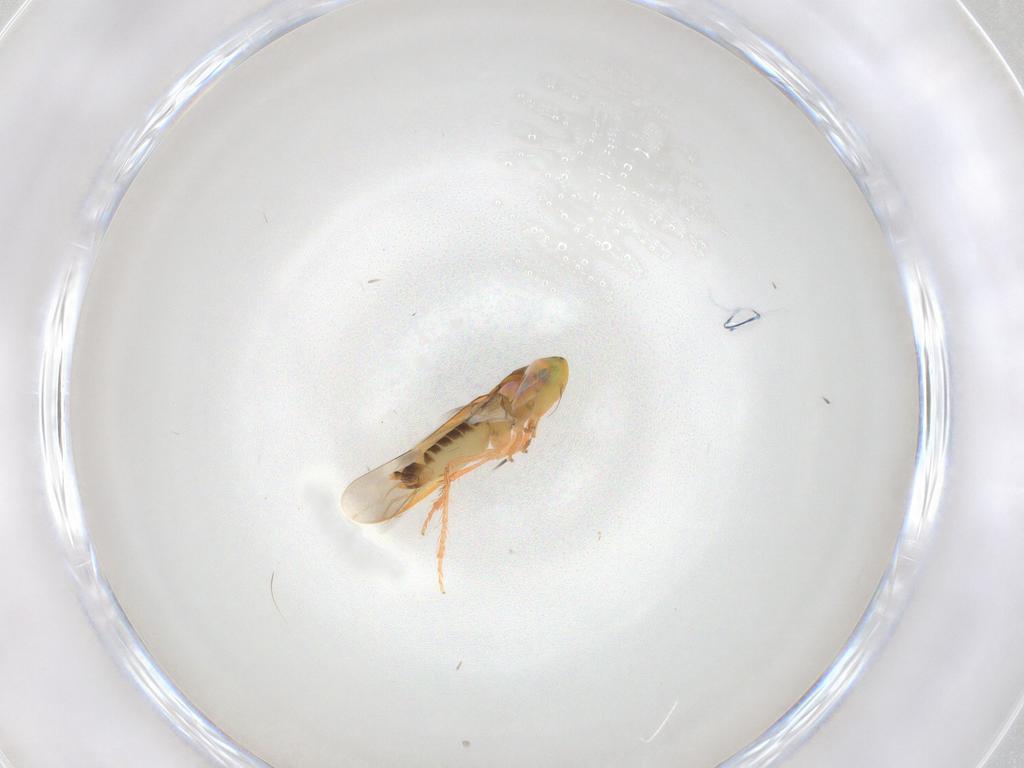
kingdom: Animalia
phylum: Arthropoda
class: Insecta
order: Hemiptera
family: Cicadellidae
